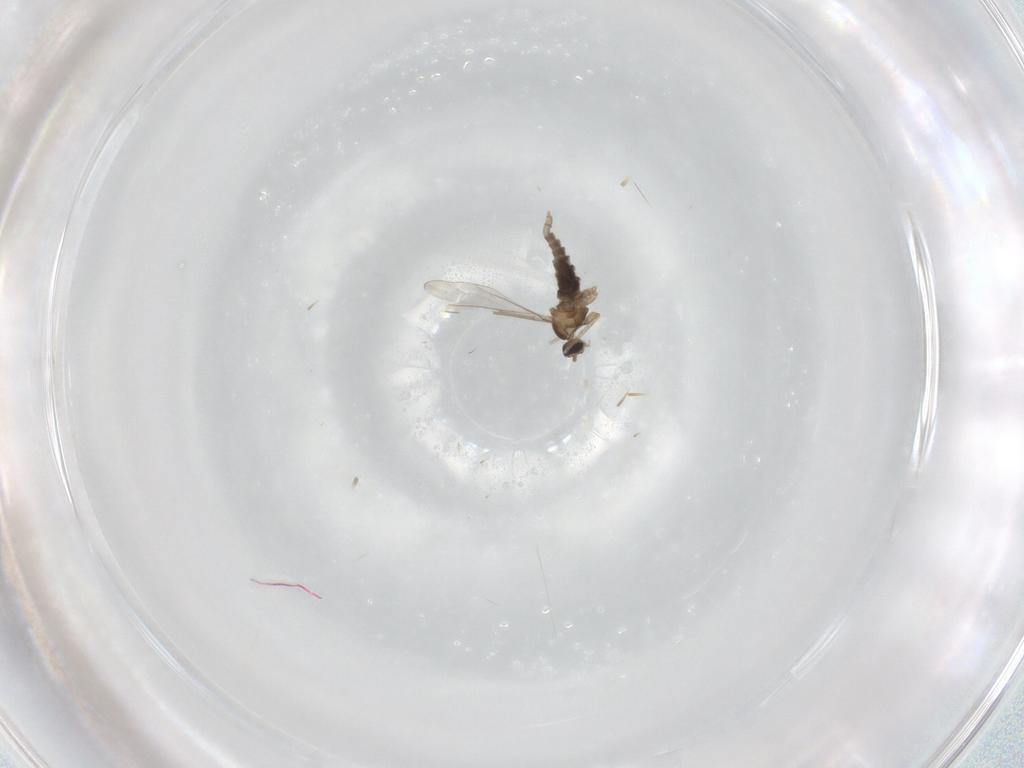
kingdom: Animalia
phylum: Arthropoda
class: Insecta
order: Diptera
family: Cecidomyiidae
